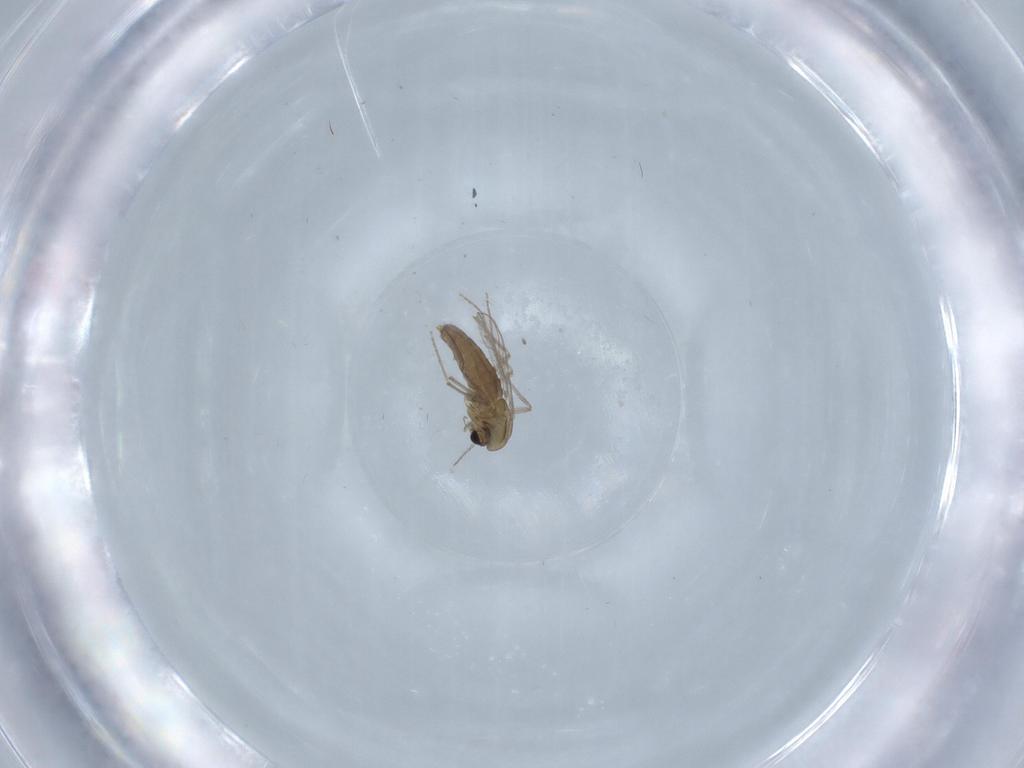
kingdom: Animalia
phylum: Arthropoda
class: Insecta
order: Diptera
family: Chironomidae
